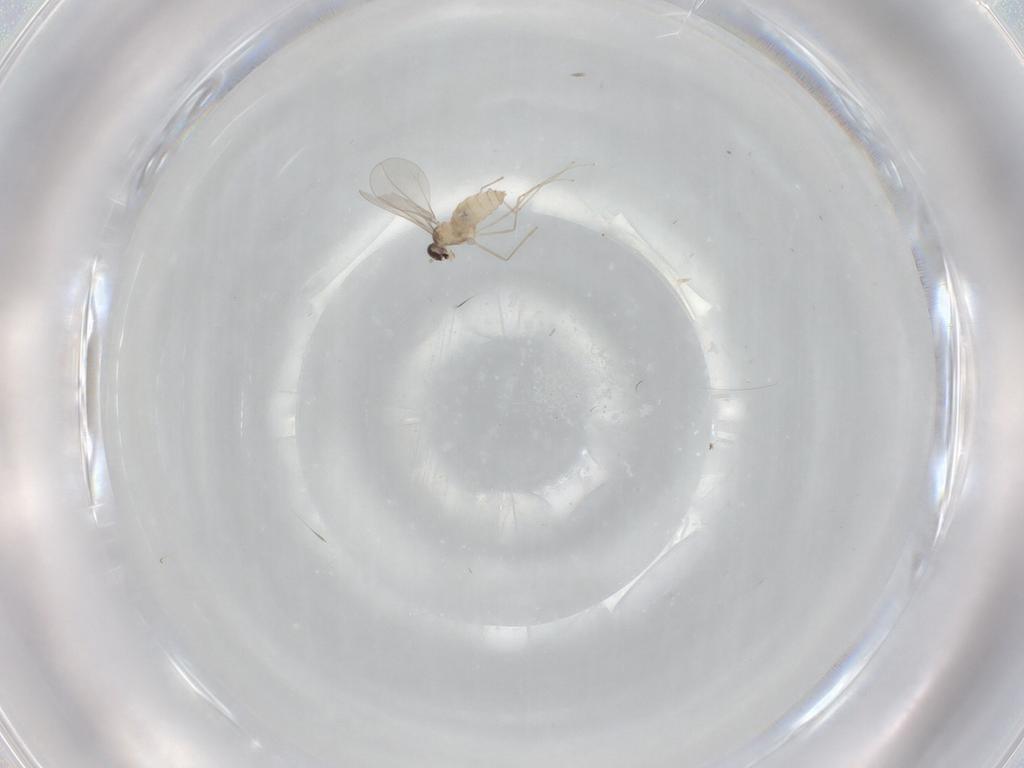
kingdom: Animalia
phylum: Arthropoda
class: Insecta
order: Diptera
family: Cecidomyiidae
